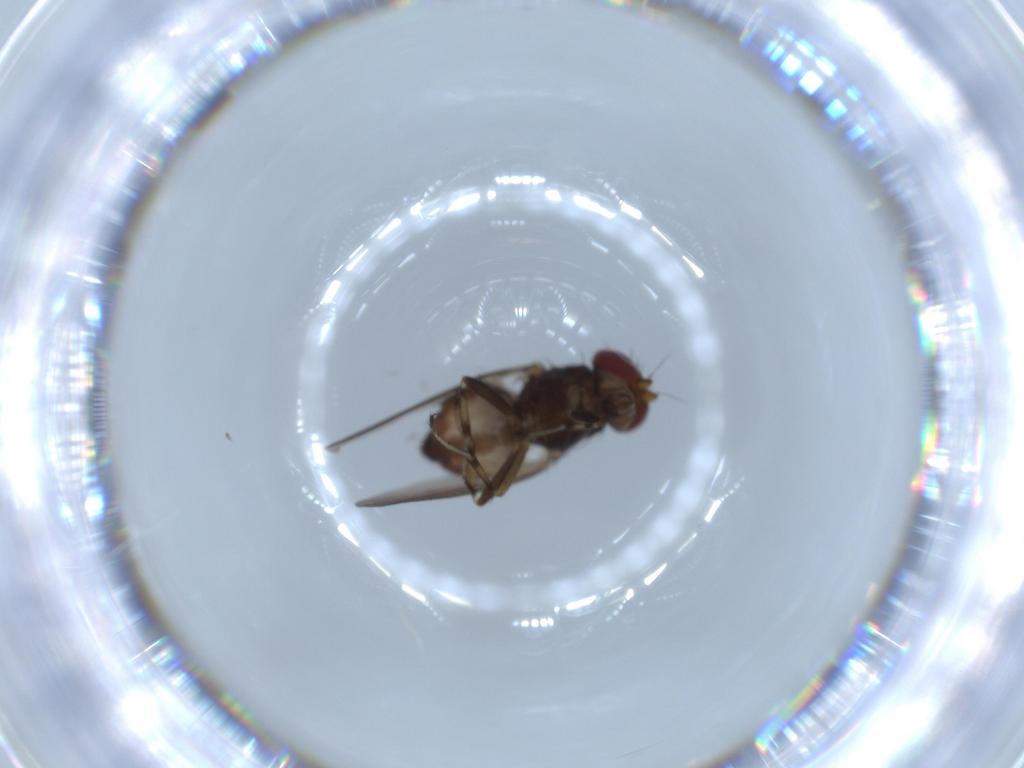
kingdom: Animalia
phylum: Arthropoda
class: Insecta
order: Diptera
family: Heleomyzidae
